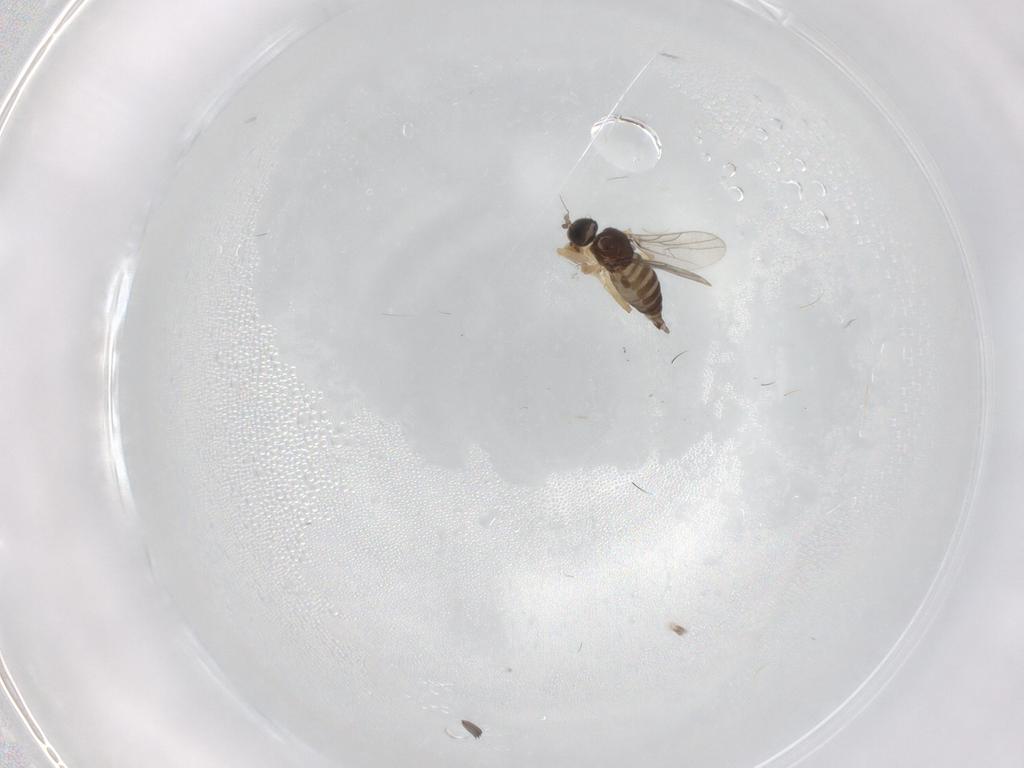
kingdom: Animalia
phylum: Arthropoda
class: Insecta
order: Diptera
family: Hybotidae
